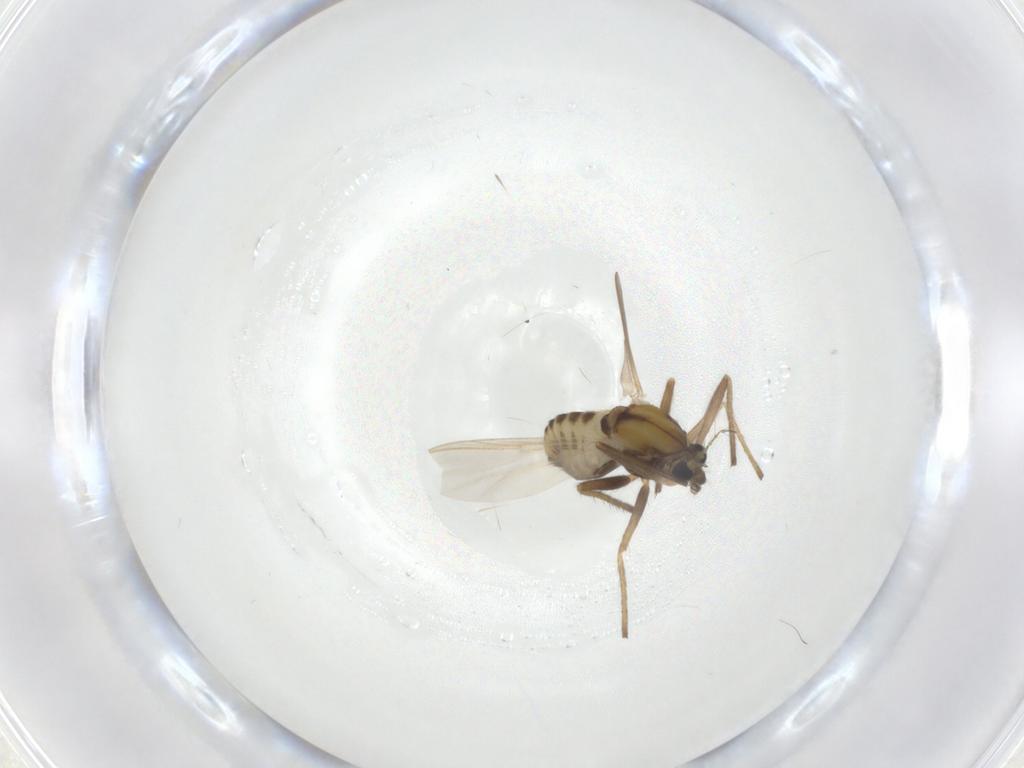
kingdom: Animalia
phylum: Arthropoda
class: Insecta
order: Diptera
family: Chironomidae
